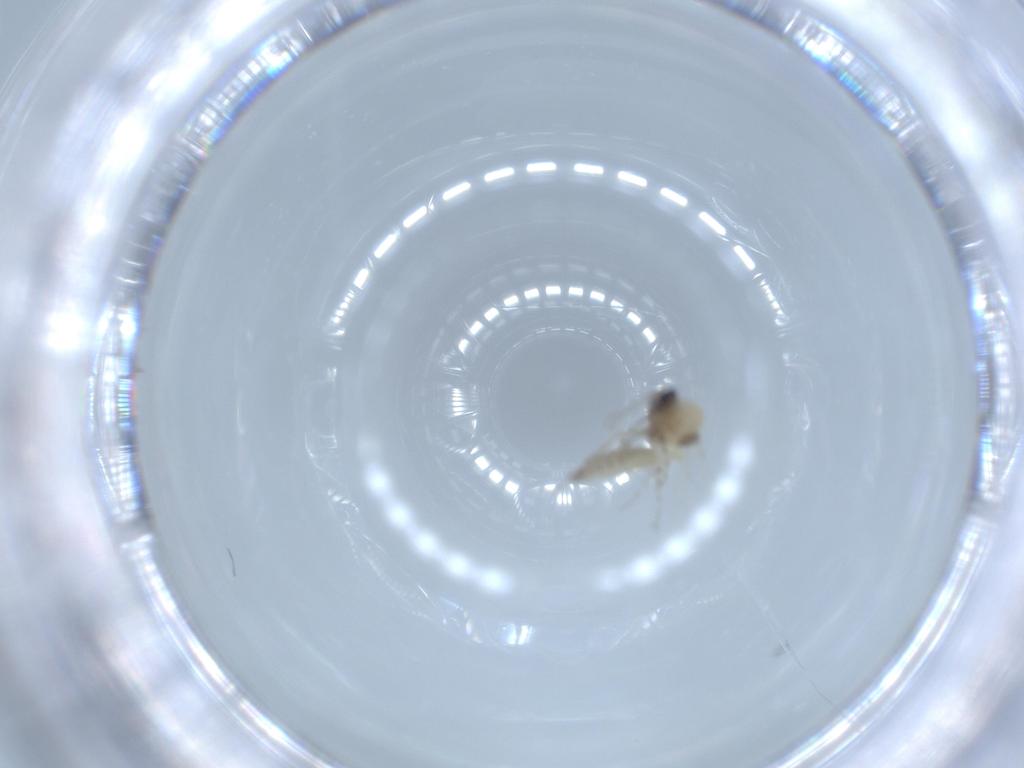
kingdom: Animalia
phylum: Arthropoda
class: Insecta
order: Diptera
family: Ceratopogonidae
